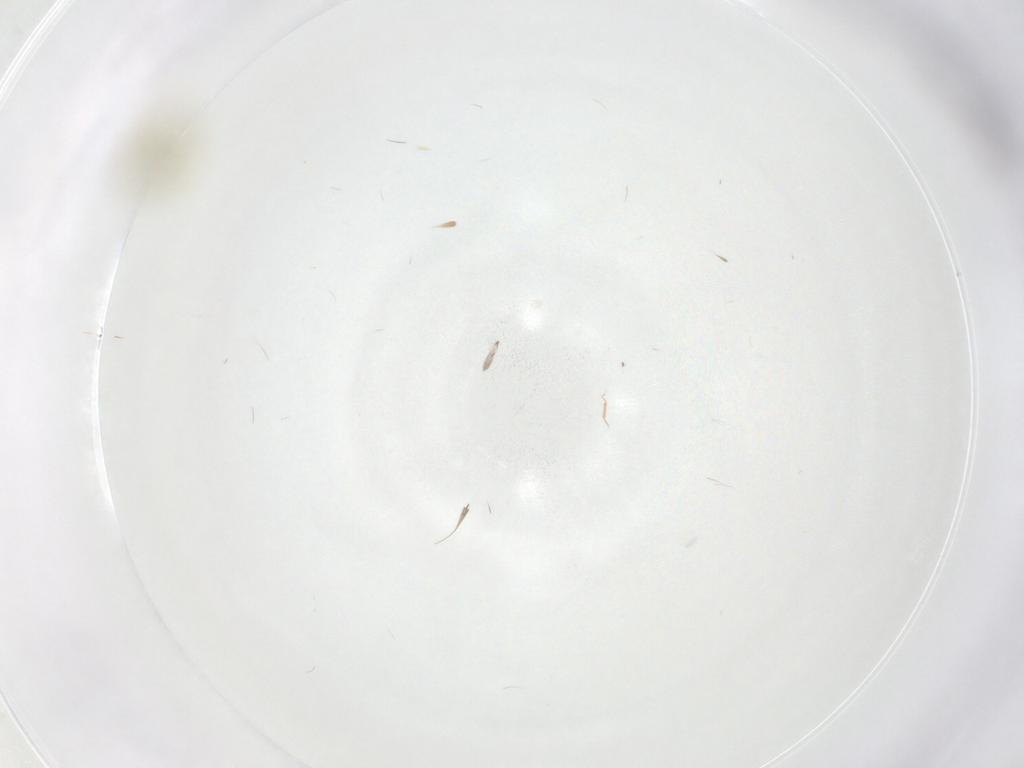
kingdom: Animalia
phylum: Arthropoda
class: Insecta
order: Hemiptera
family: Aleyrodidae
